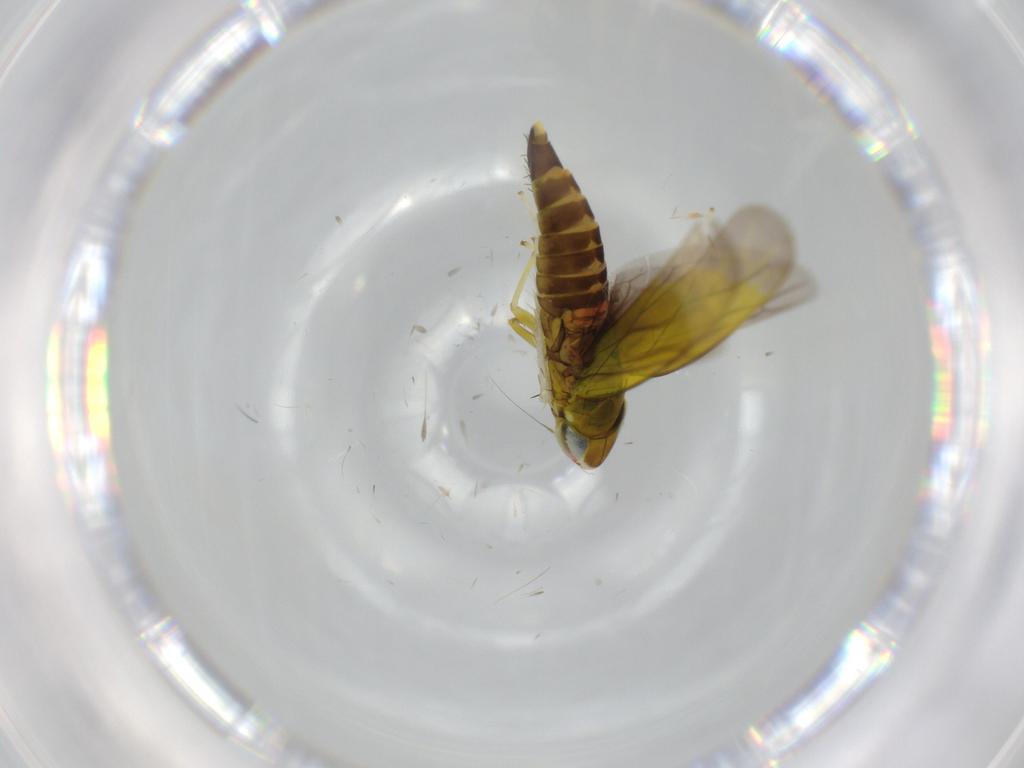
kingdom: Animalia
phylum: Arthropoda
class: Insecta
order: Hemiptera
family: Cicadellidae
